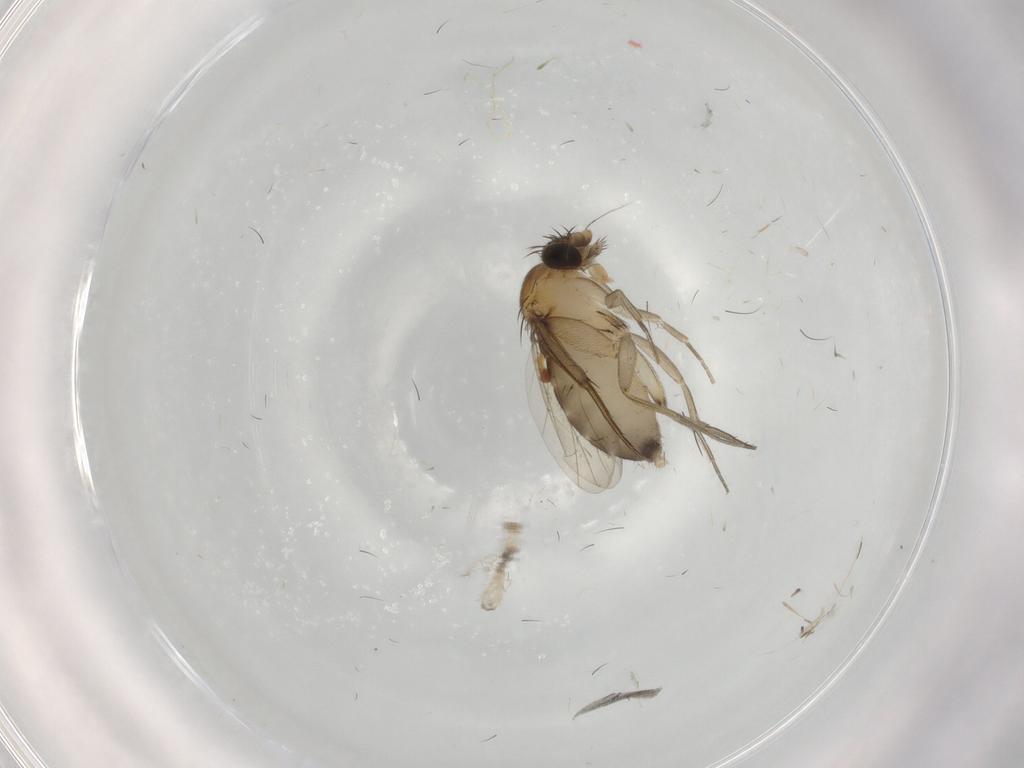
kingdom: Animalia
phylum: Arthropoda
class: Insecta
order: Diptera
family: Phoridae
